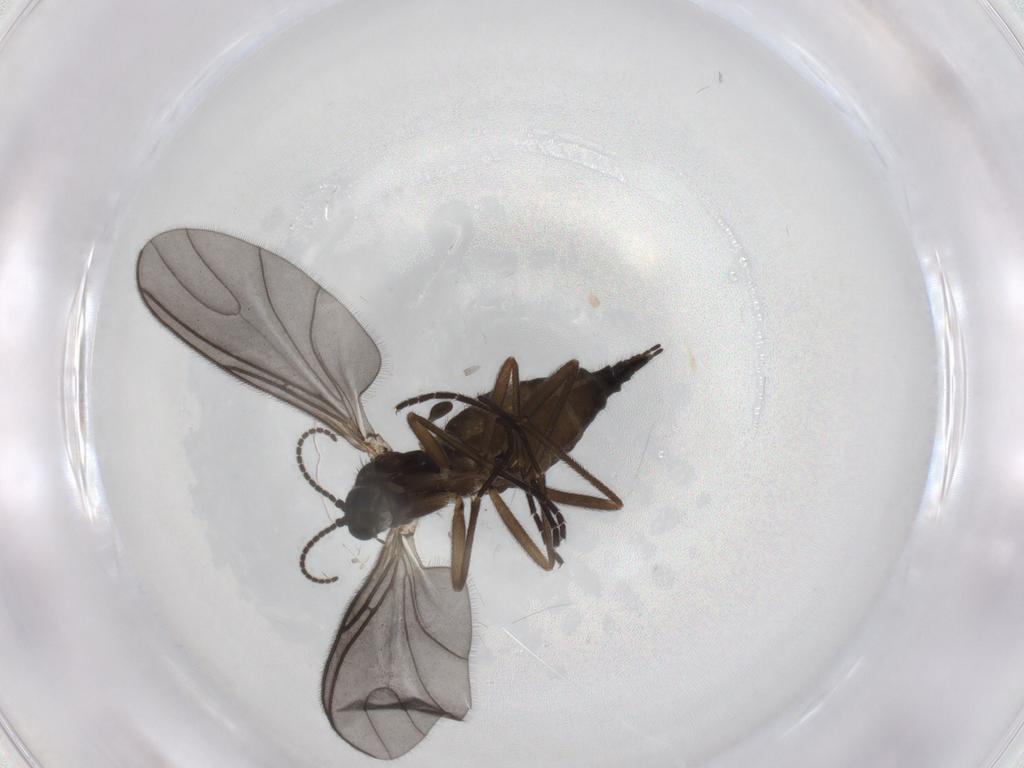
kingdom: Animalia
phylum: Arthropoda
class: Insecta
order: Diptera
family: Sciaridae
